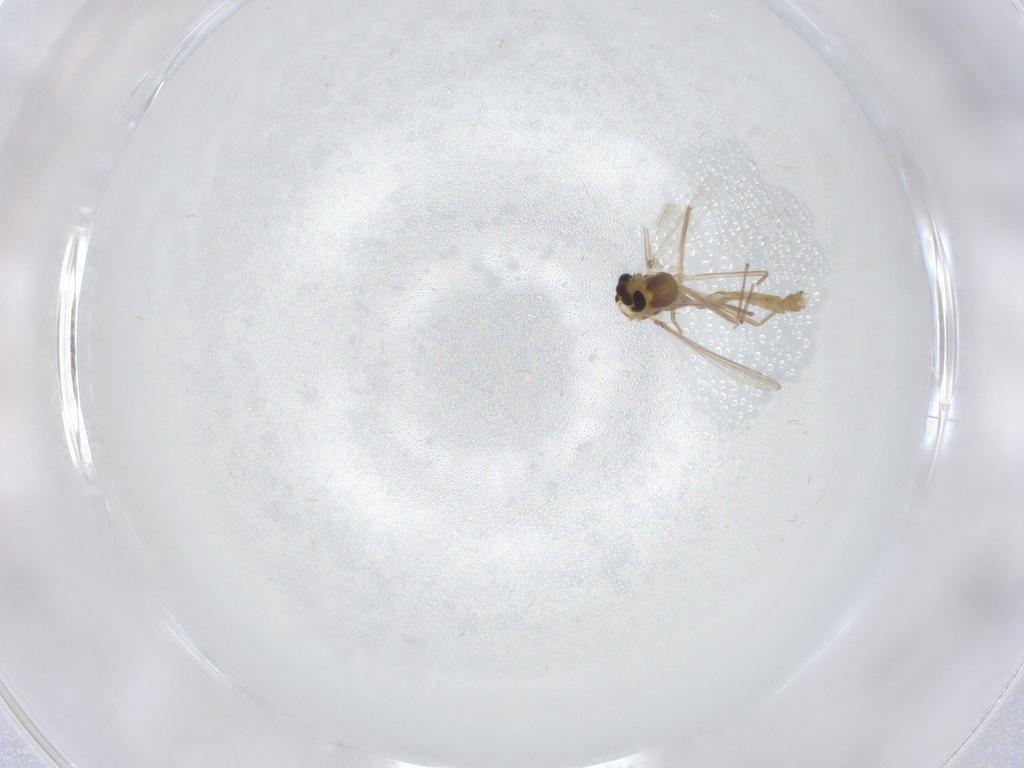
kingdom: Animalia
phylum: Arthropoda
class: Insecta
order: Diptera
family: Chironomidae
